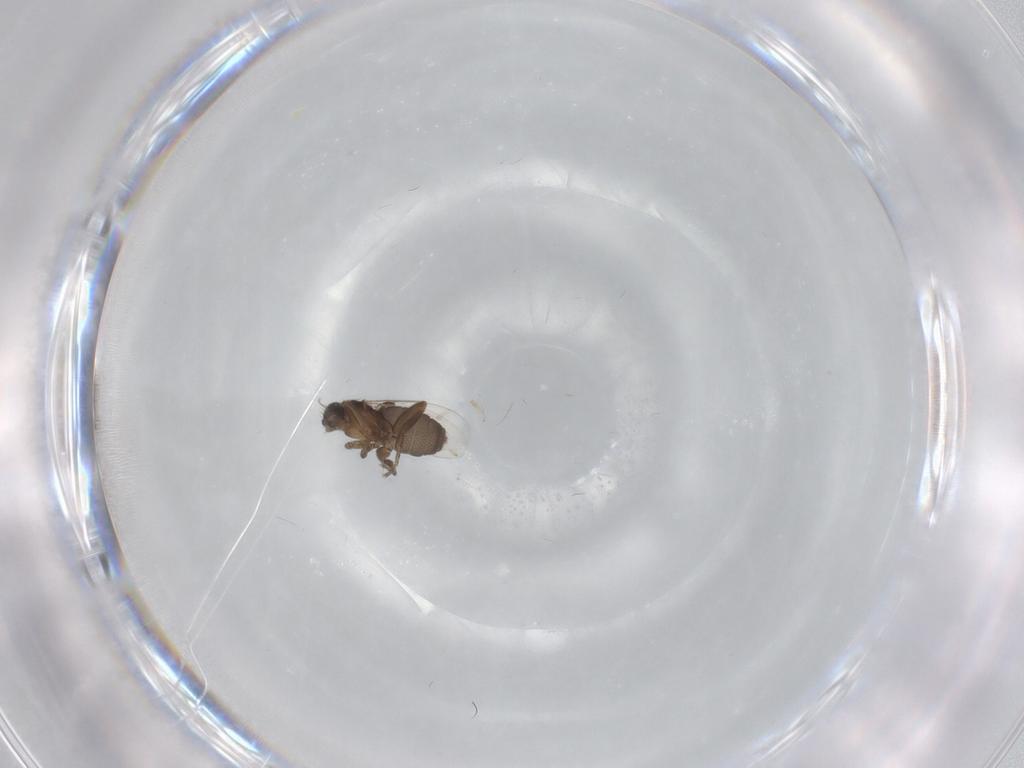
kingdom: Animalia
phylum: Arthropoda
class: Insecta
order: Diptera
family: Phoridae
